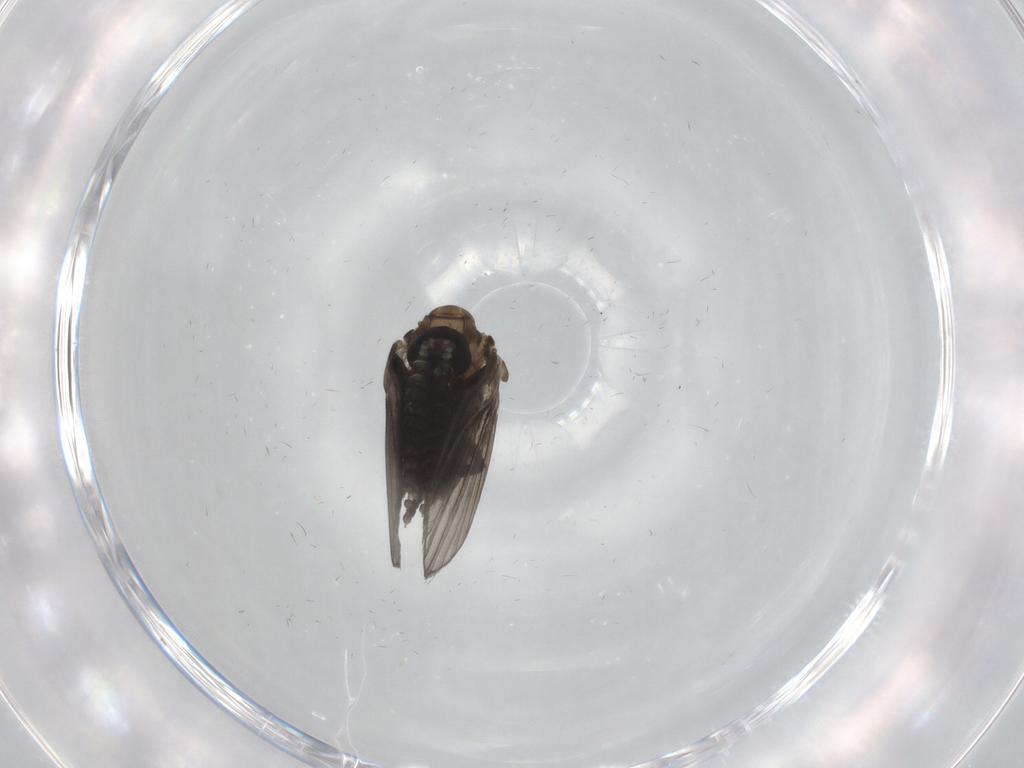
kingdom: Animalia
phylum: Arthropoda
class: Insecta
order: Diptera
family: Phoridae
